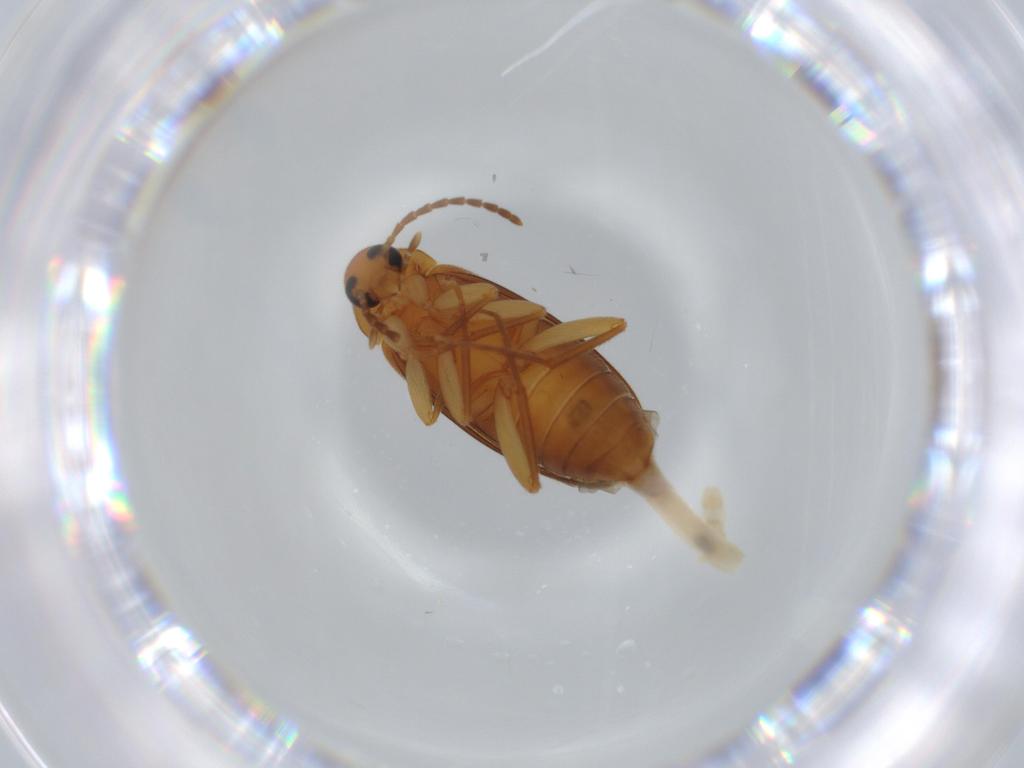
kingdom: Animalia
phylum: Arthropoda
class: Insecta
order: Coleoptera
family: Scraptiidae
